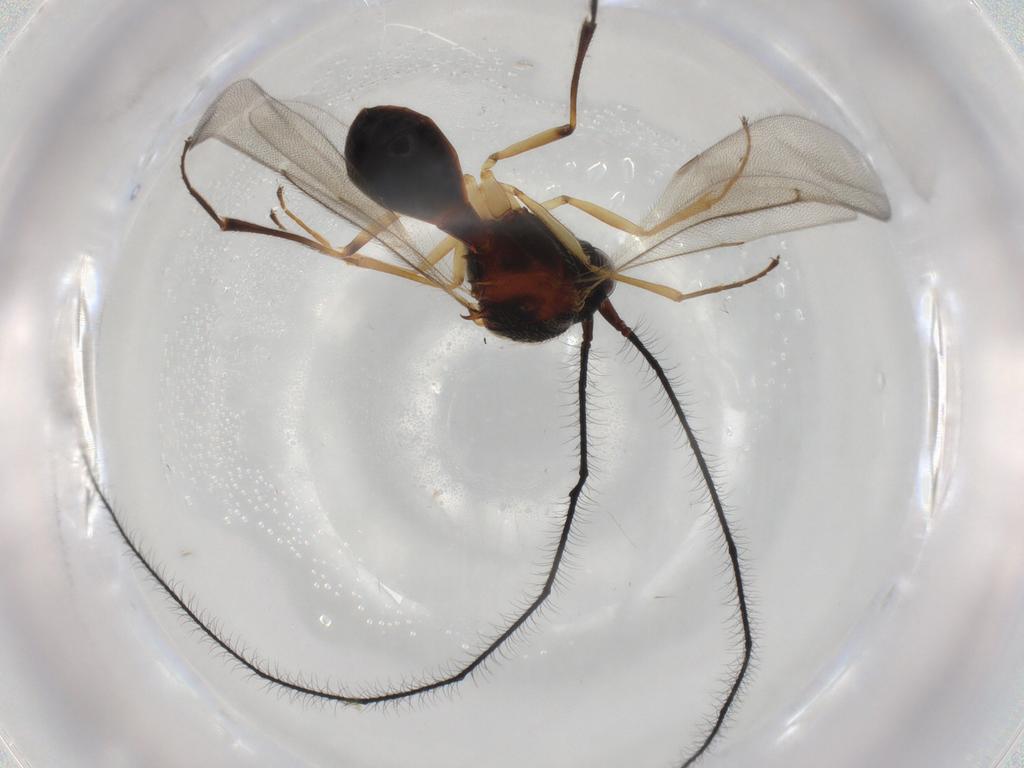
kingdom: Animalia
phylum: Arthropoda
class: Insecta
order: Hymenoptera
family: Scelionidae
